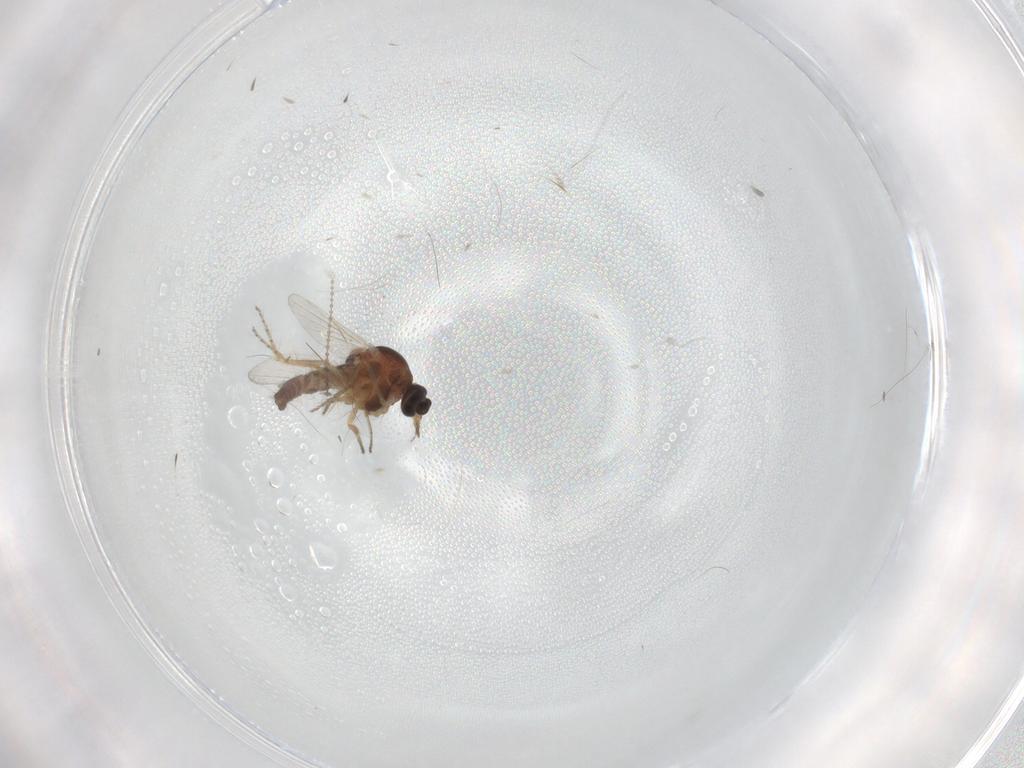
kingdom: Animalia
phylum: Arthropoda
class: Insecta
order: Diptera
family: Ceratopogonidae
